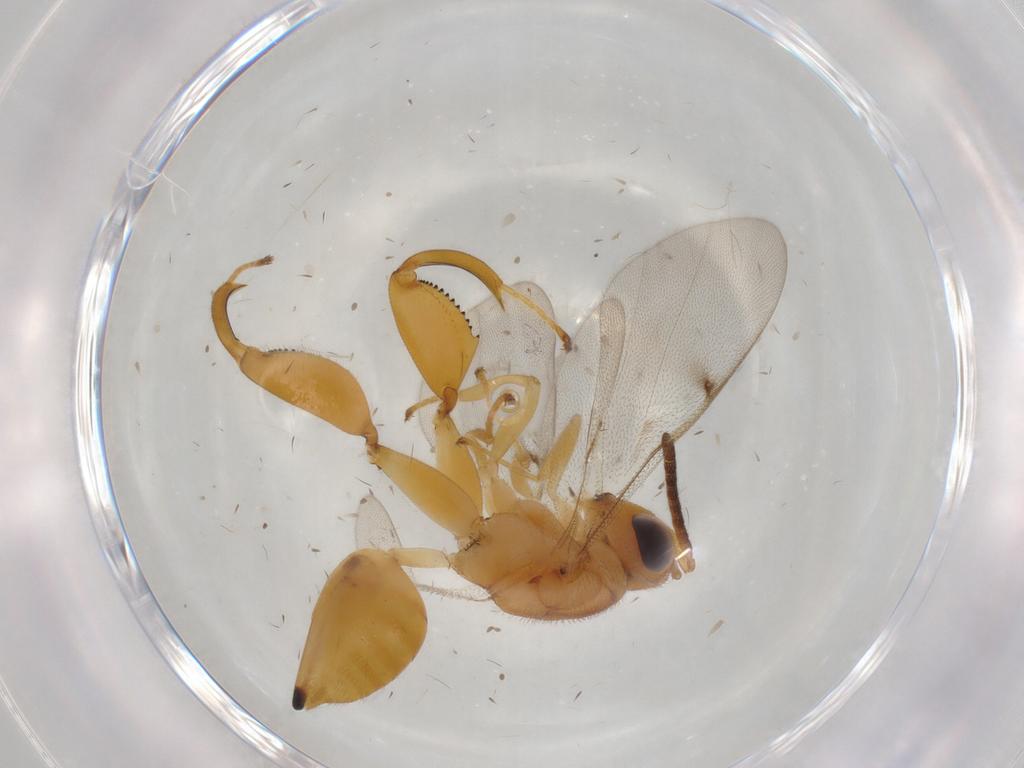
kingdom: Animalia
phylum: Arthropoda
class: Insecta
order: Hymenoptera
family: Chalcididae
